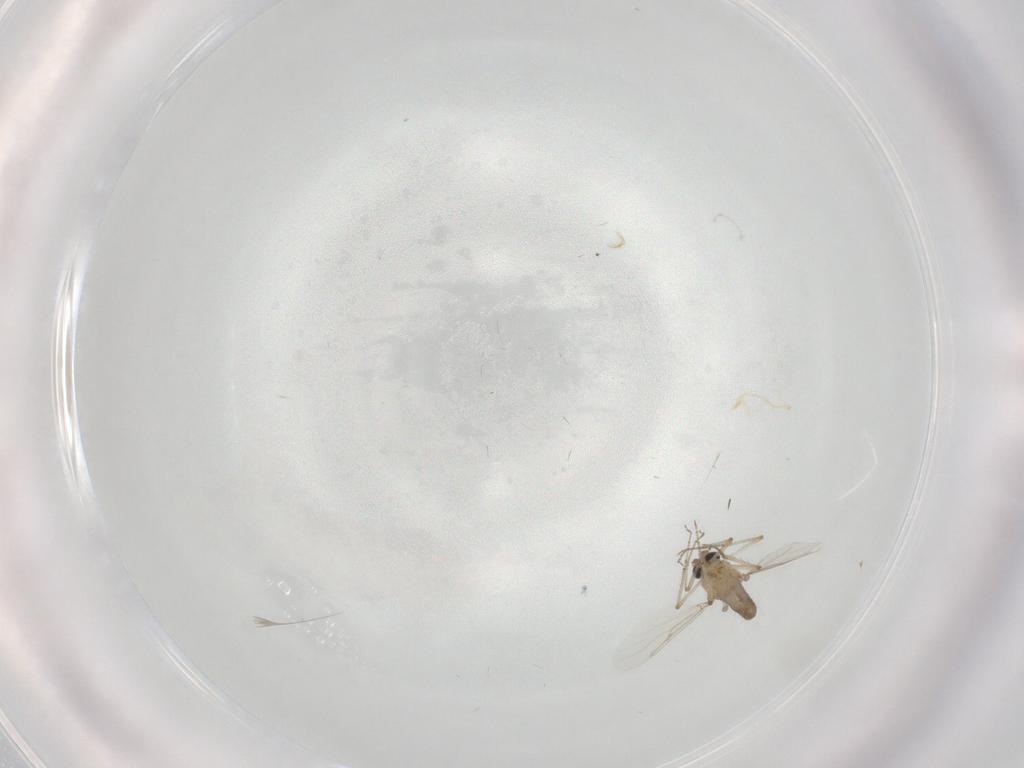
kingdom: Animalia
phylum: Arthropoda
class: Insecta
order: Diptera
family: Ceratopogonidae
